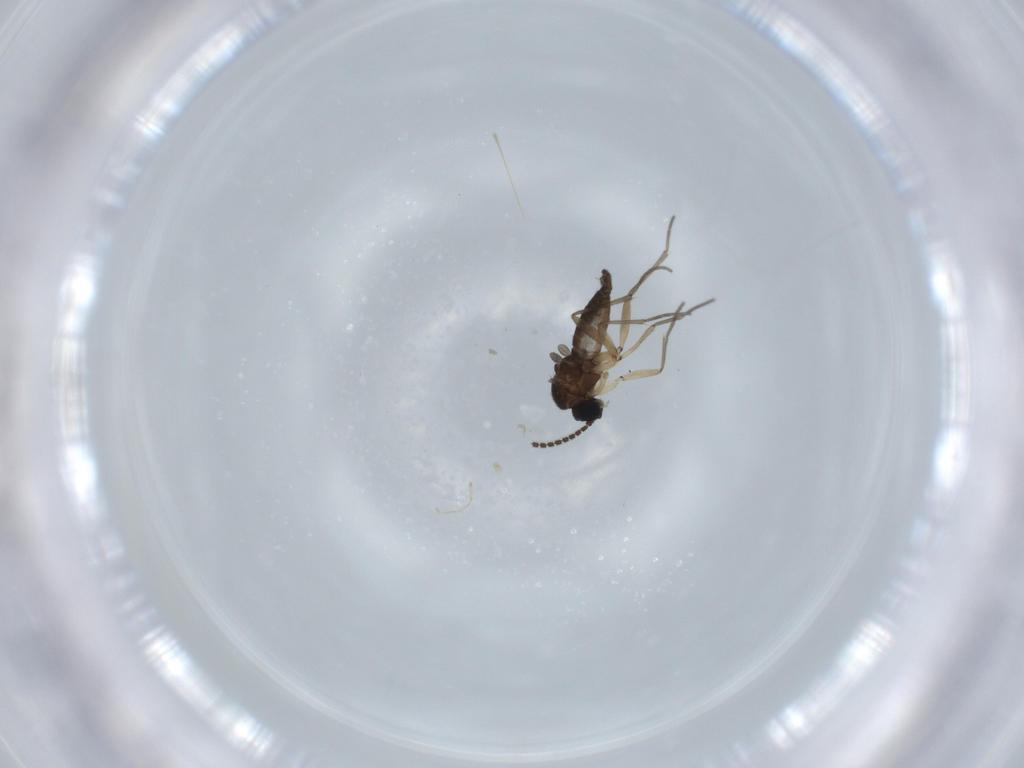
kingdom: Animalia
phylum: Arthropoda
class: Insecta
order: Diptera
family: Sciaridae
